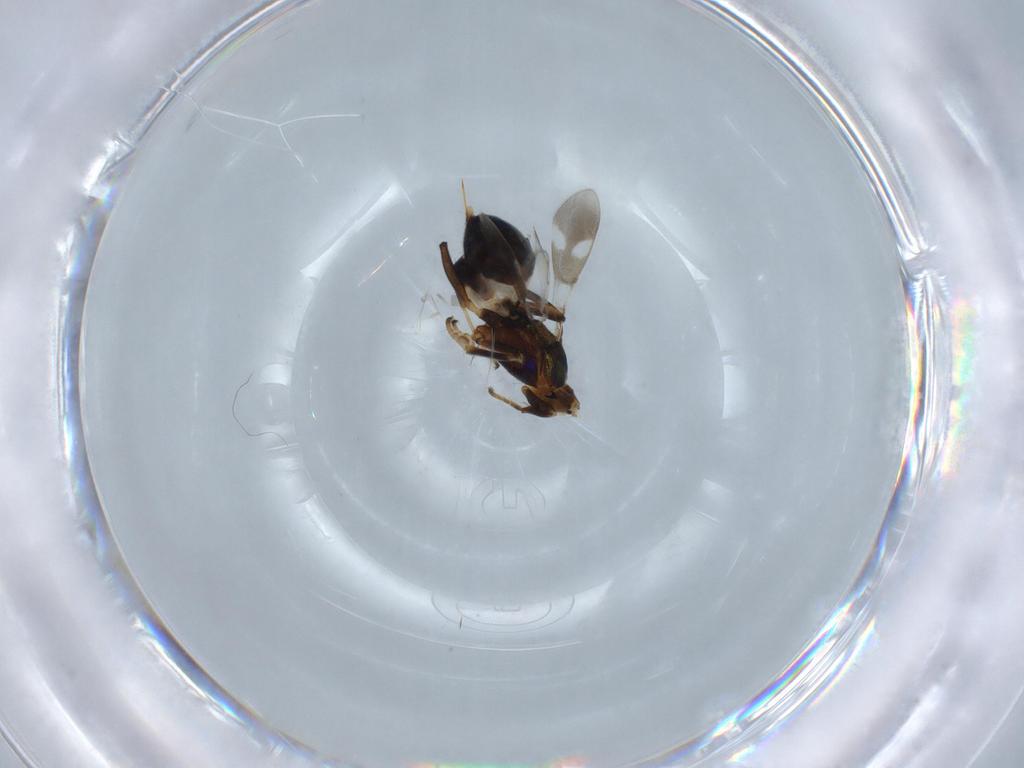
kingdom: Animalia
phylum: Arthropoda
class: Insecta
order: Hymenoptera
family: Eupelmidae
